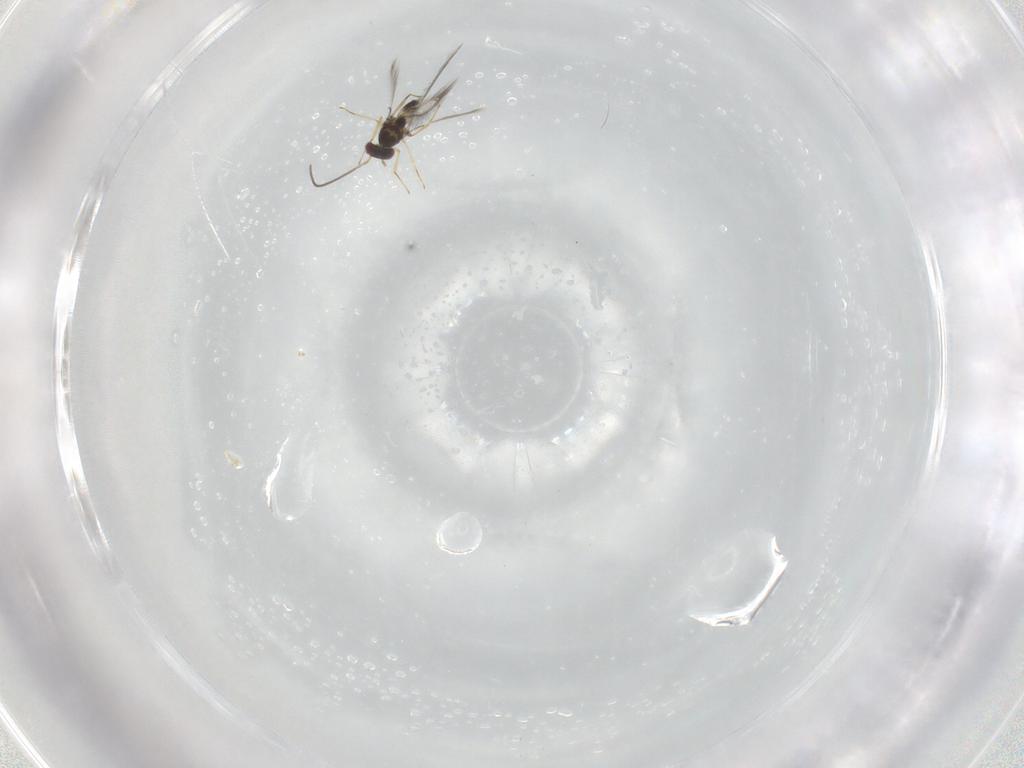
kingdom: Animalia
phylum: Arthropoda
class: Insecta
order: Hymenoptera
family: Mymaridae
